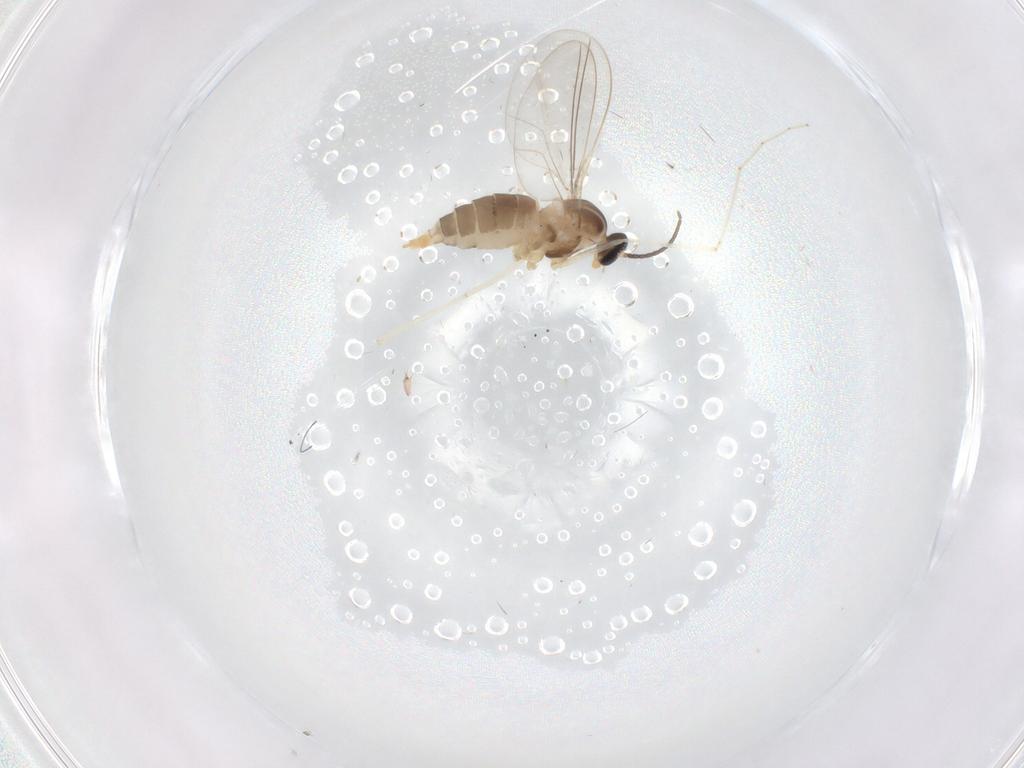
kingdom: Animalia
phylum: Arthropoda
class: Insecta
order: Diptera
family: Cecidomyiidae
